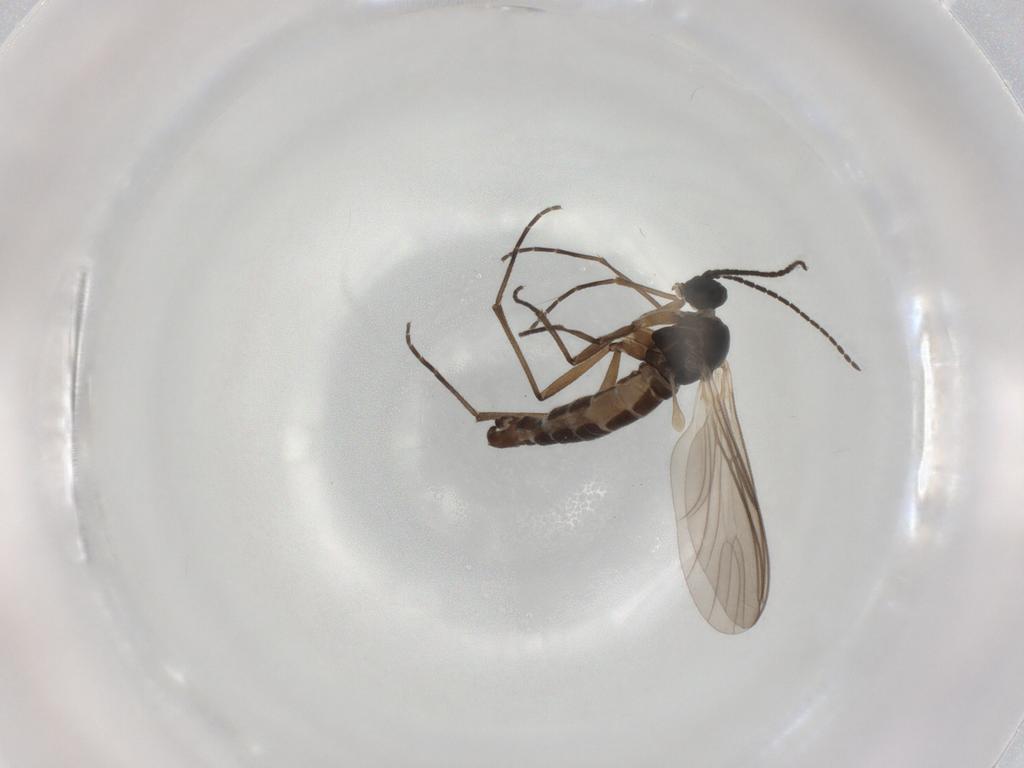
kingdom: Animalia
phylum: Arthropoda
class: Insecta
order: Diptera
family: Sciaridae
